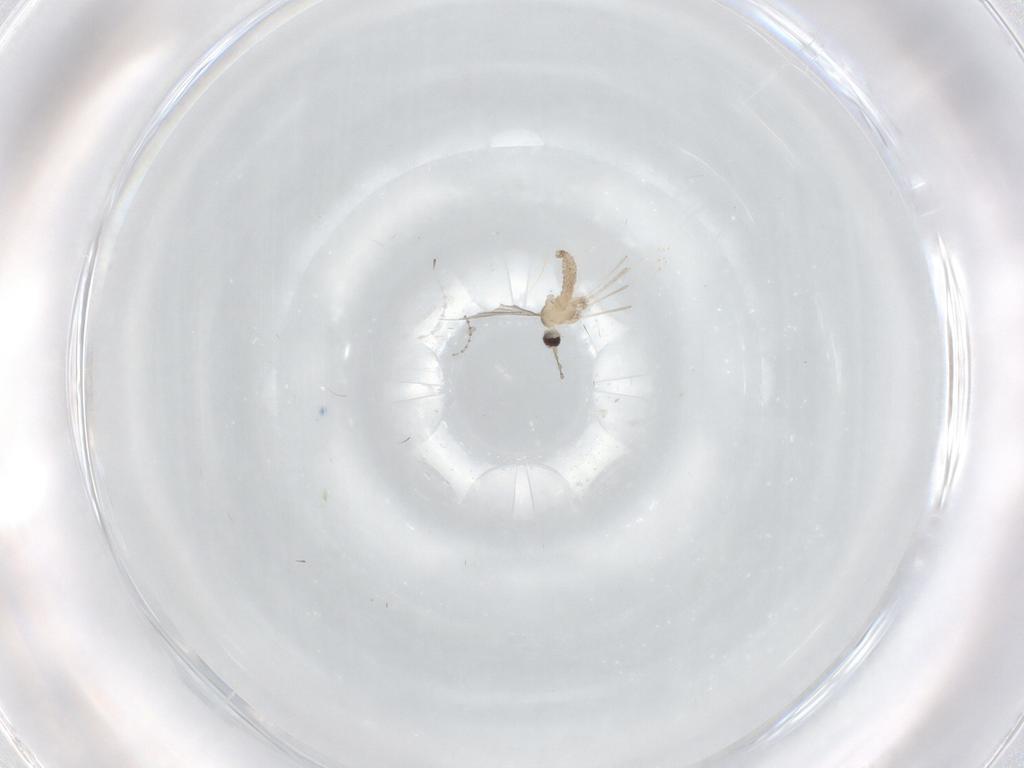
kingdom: Animalia
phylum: Arthropoda
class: Insecta
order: Diptera
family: Cecidomyiidae
